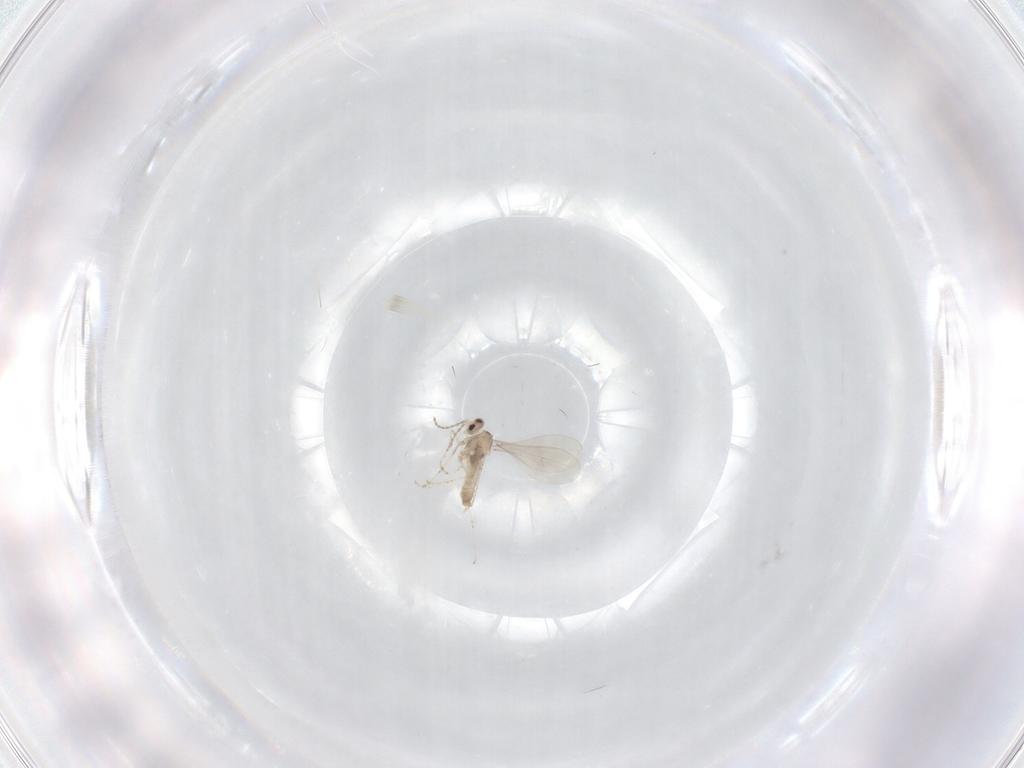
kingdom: Animalia
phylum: Arthropoda
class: Insecta
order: Diptera
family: Cecidomyiidae
